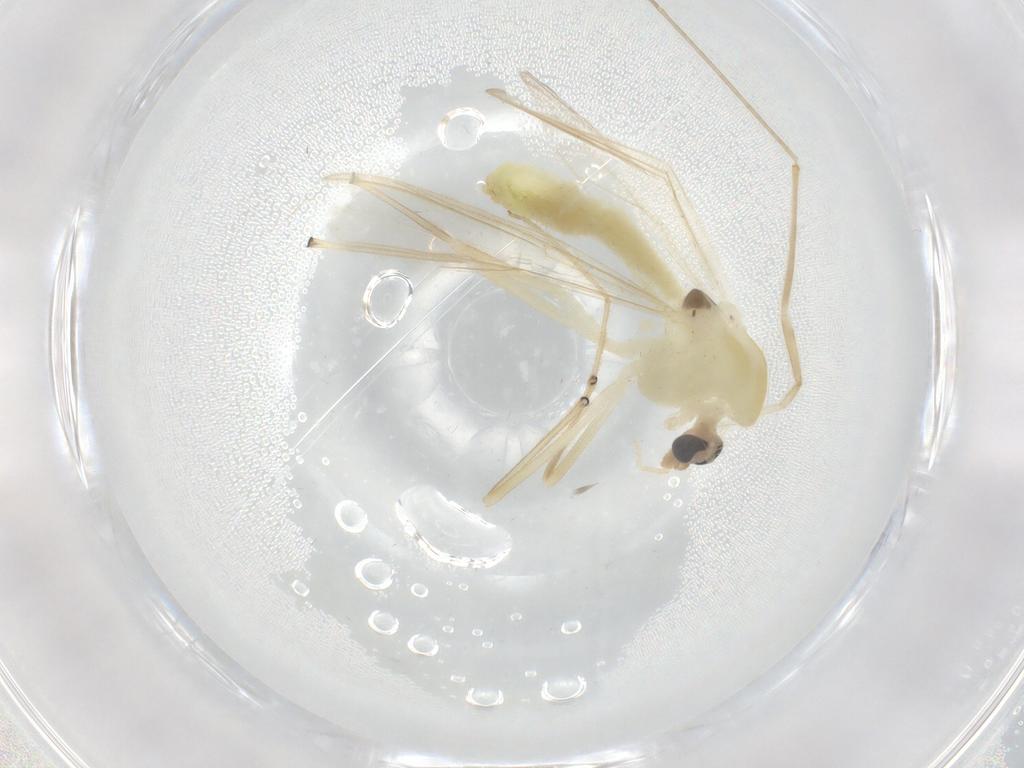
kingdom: Animalia
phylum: Arthropoda
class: Insecta
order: Diptera
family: Chironomidae
